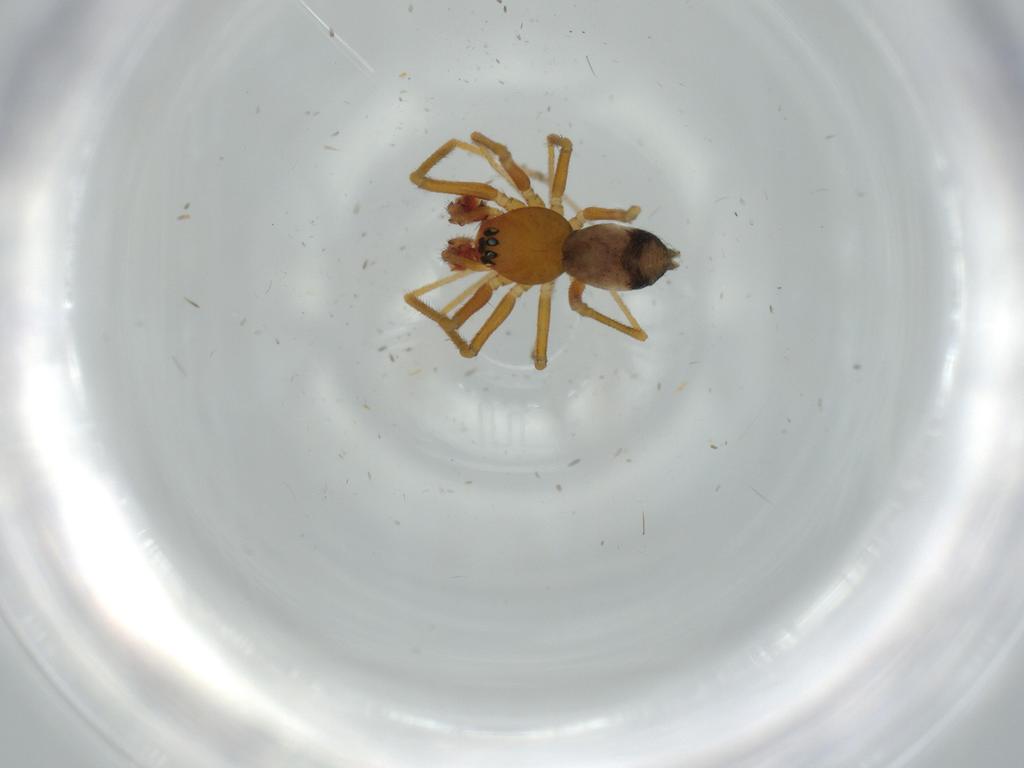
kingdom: Animalia
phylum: Arthropoda
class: Arachnida
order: Araneae
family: Linyphiidae
